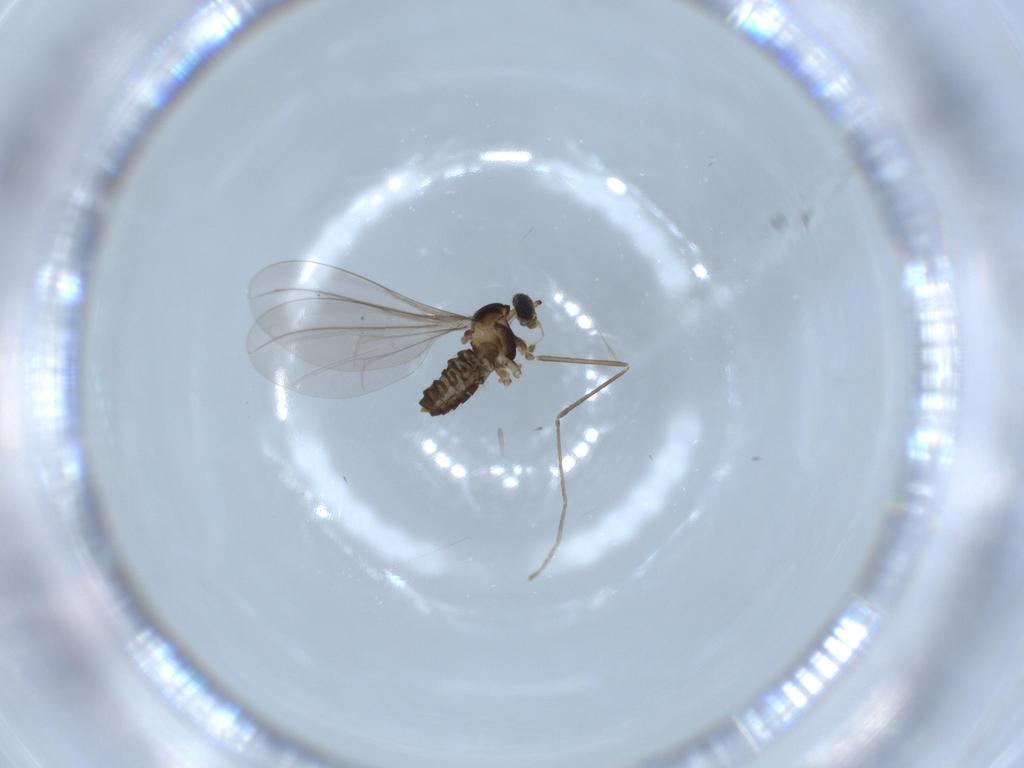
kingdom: Animalia
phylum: Arthropoda
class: Insecta
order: Diptera
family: Cecidomyiidae
